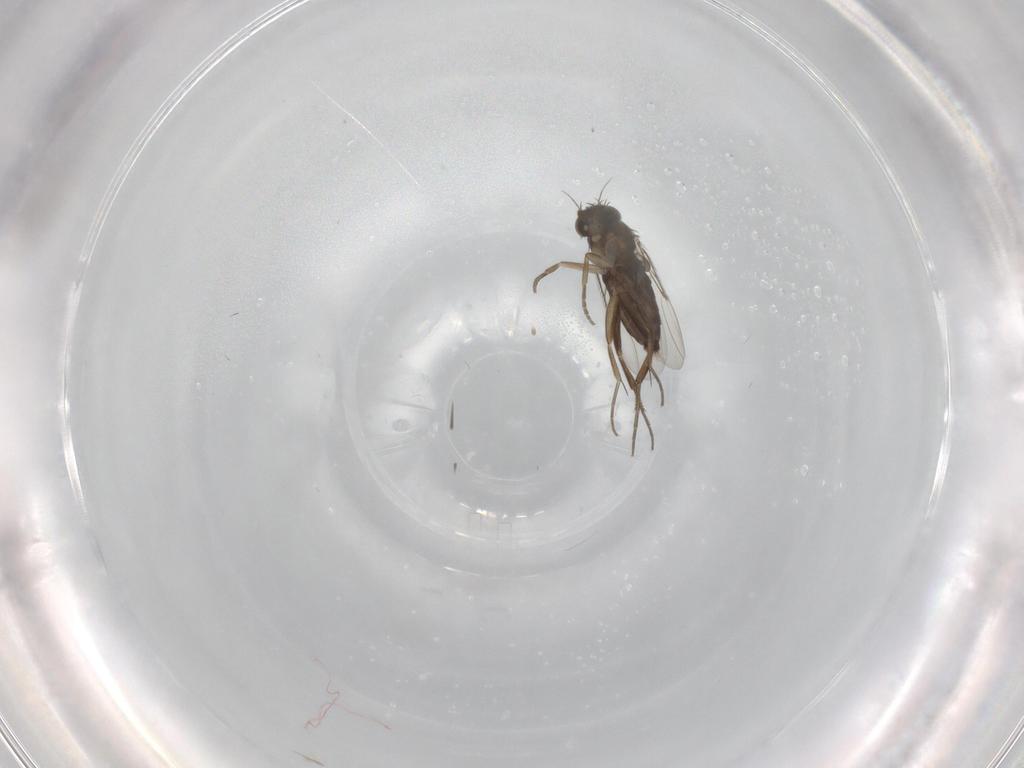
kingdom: Animalia
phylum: Arthropoda
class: Insecta
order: Diptera
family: Phoridae
